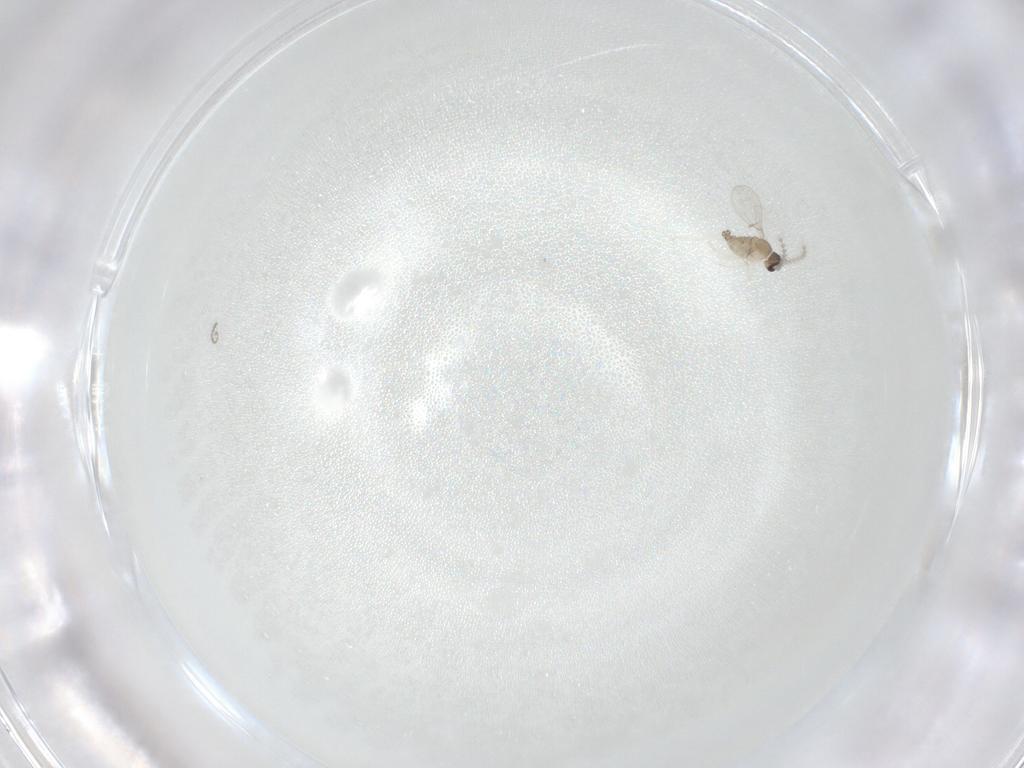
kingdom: Animalia
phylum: Arthropoda
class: Insecta
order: Diptera
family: Cecidomyiidae
